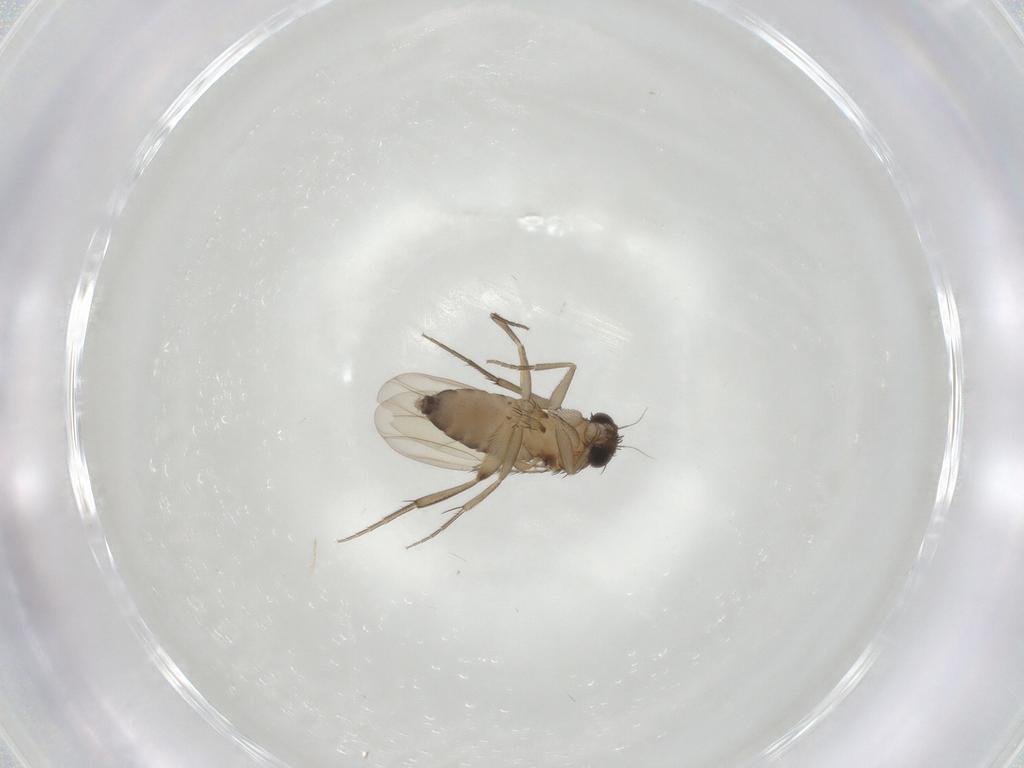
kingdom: Animalia
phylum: Arthropoda
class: Insecta
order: Diptera
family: Phoridae
